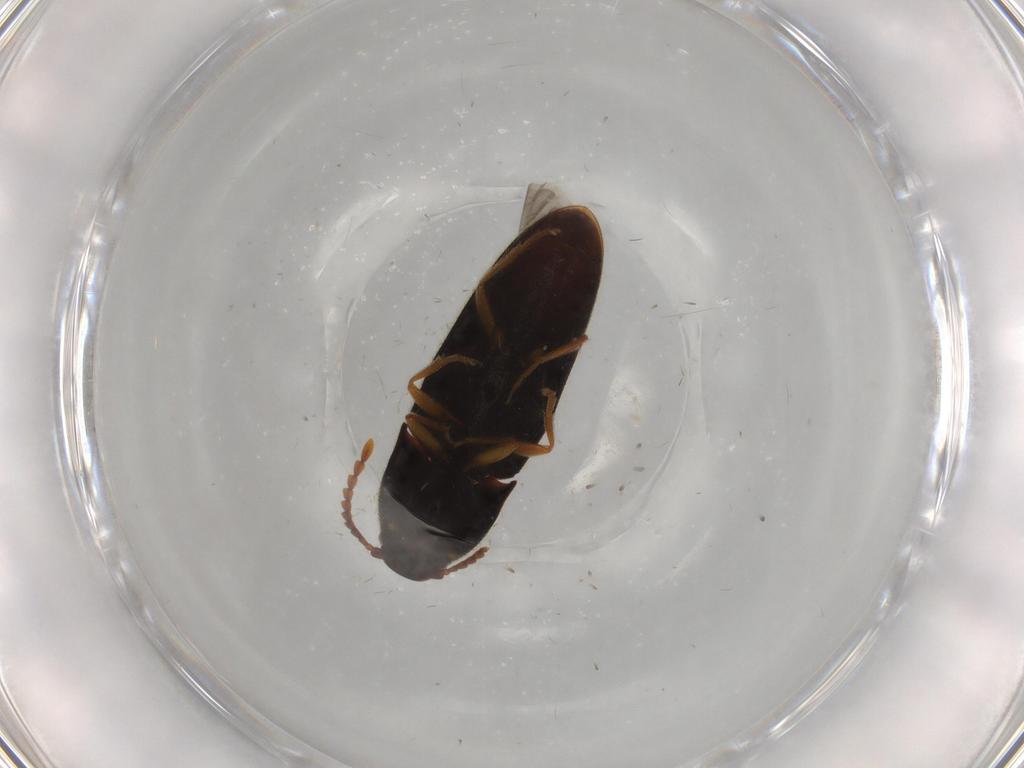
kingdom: Animalia
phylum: Arthropoda
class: Insecta
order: Coleoptera
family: Elateridae
